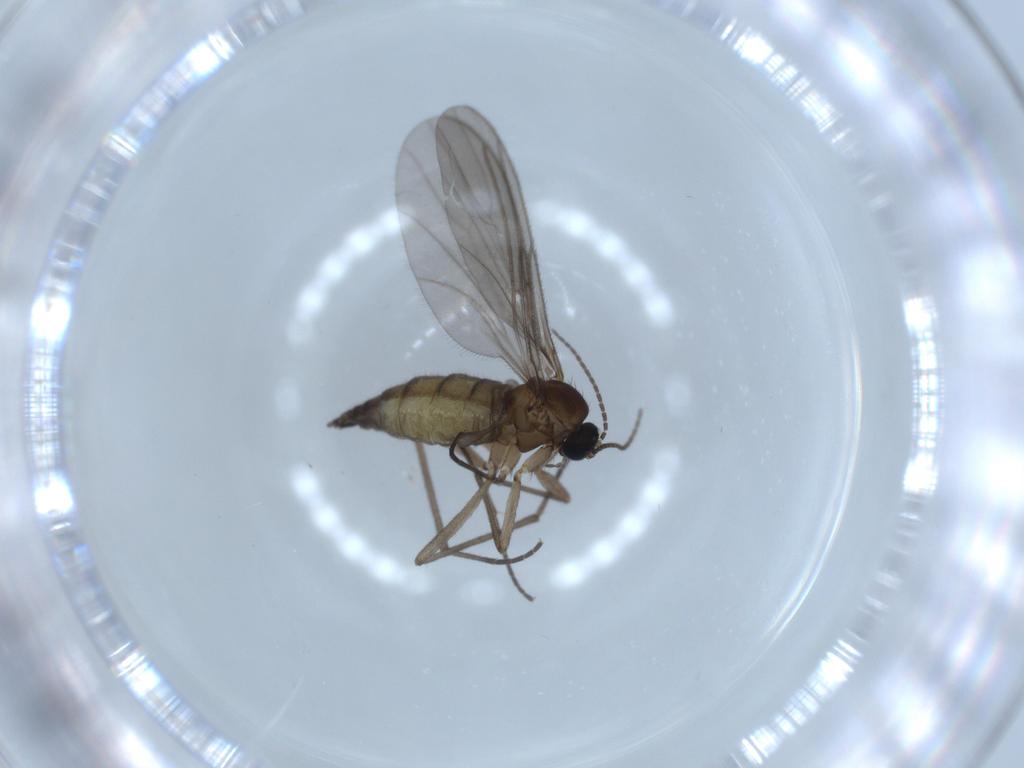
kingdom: Animalia
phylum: Arthropoda
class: Insecta
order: Diptera
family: Sciaridae
